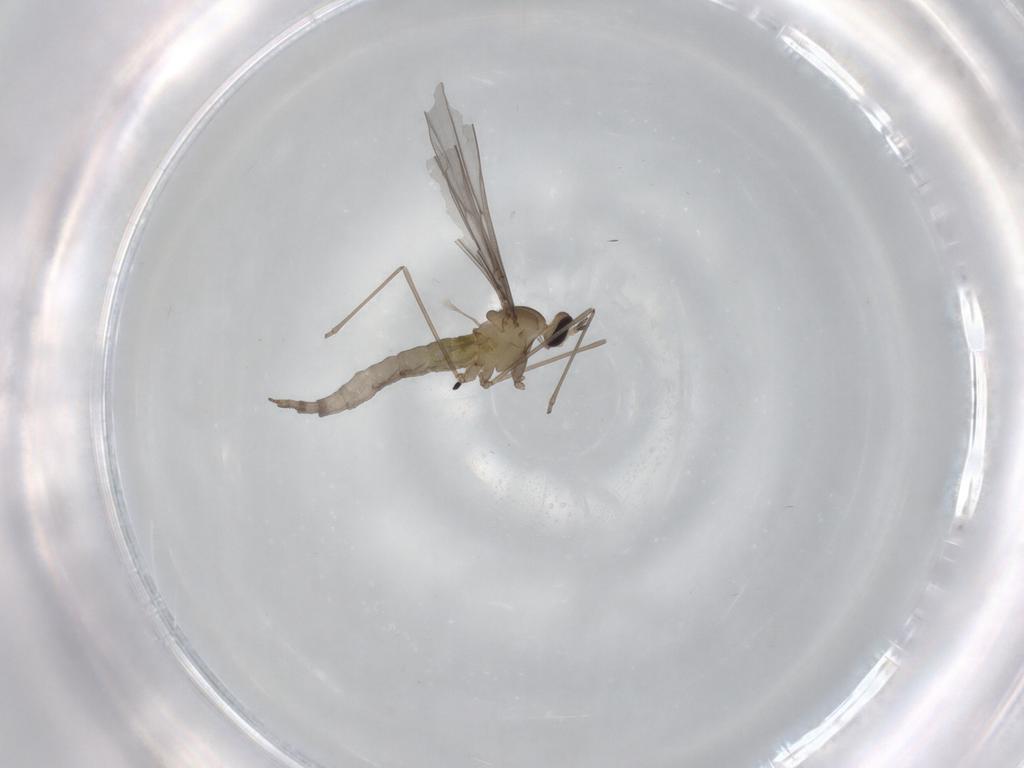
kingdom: Animalia
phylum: Arthropoda
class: Insecta
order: Diptera
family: Cecidomyiidae
